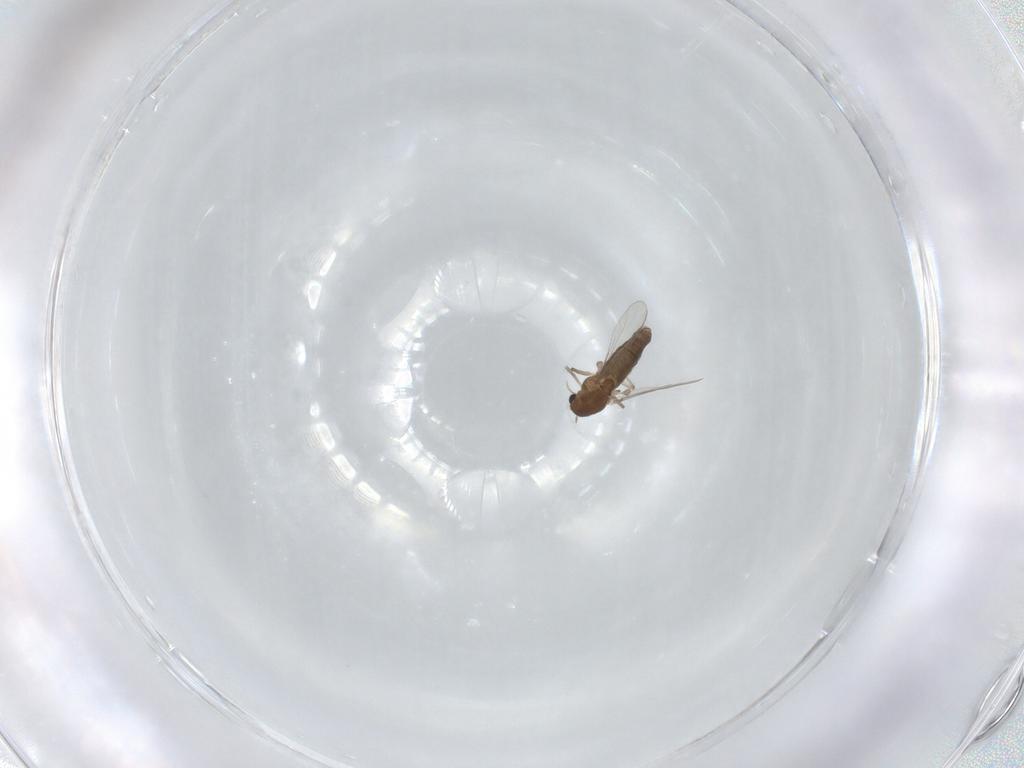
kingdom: Animalia
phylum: Arthropoda
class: Insecta
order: Diptera
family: Chironomidae
